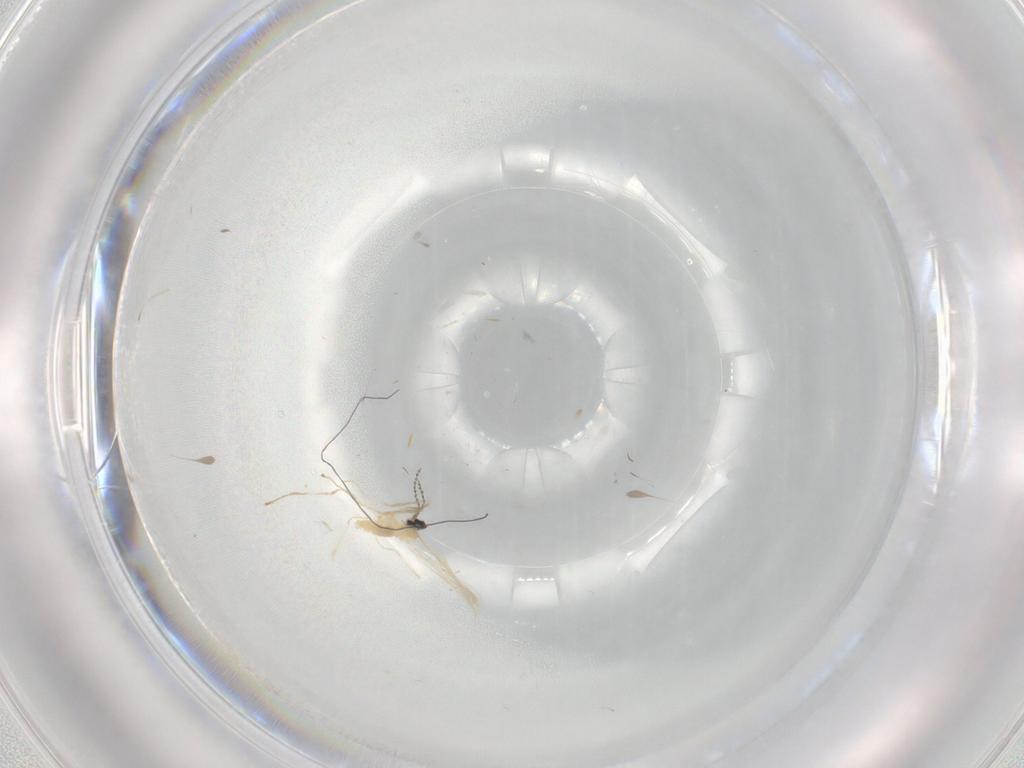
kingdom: Animalia
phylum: Arthropoda
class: Insecta
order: Diptera
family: Cecidomyiidae
